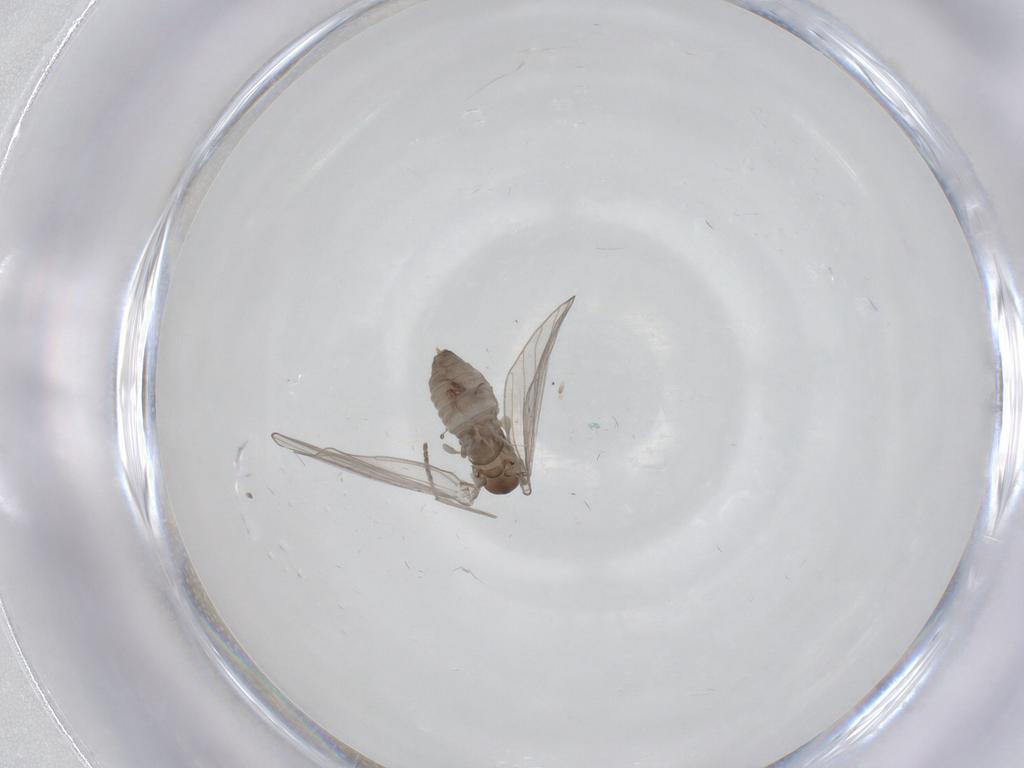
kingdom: Animalia
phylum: Arthropoda
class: Insecta
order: Diptera
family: Psychodidae
